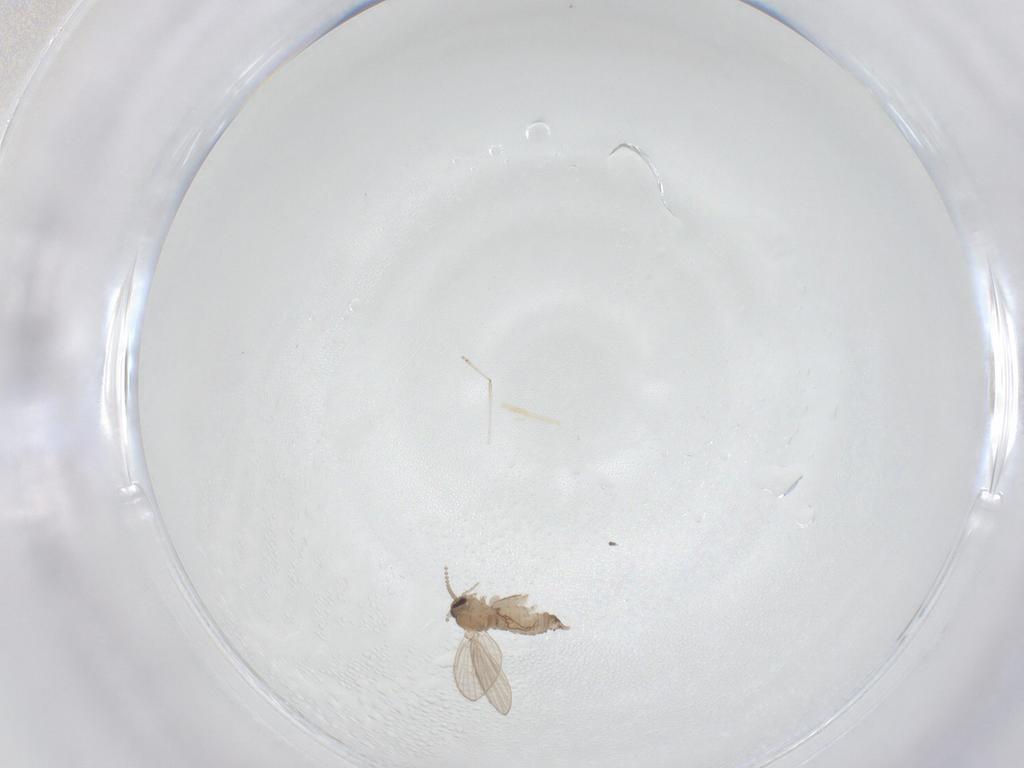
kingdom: Animalia
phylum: Arthropoda
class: Insecta
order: Diptera
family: Psychodidae
